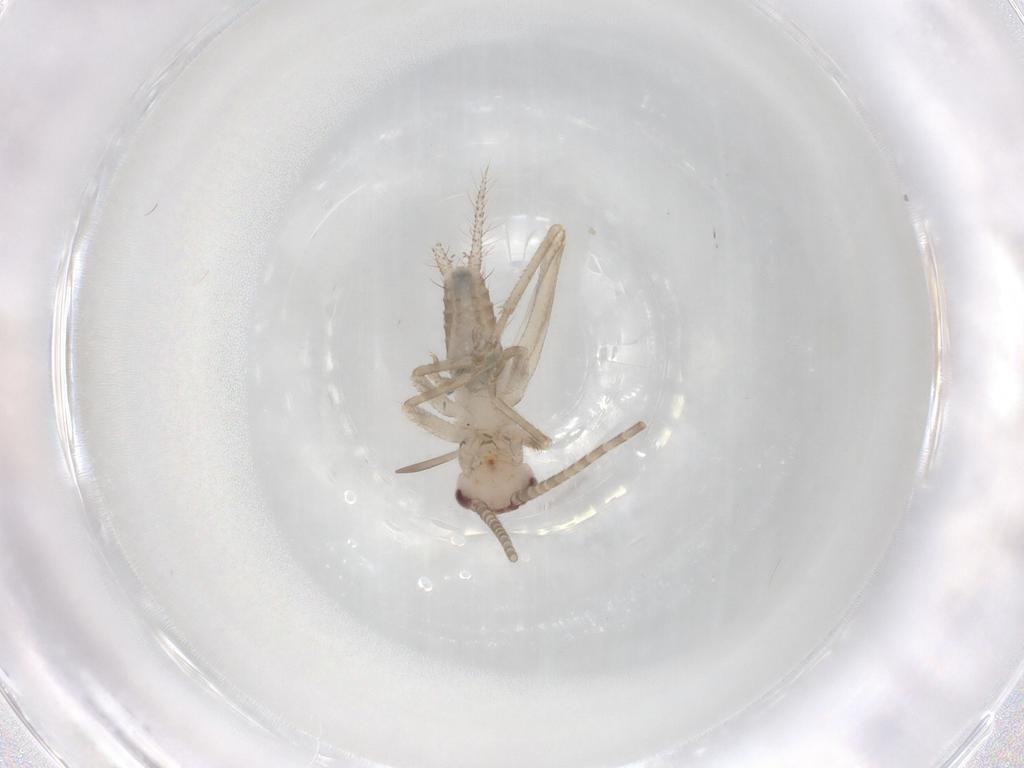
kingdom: Animalia
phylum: Arthropoda
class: Insecta
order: Orthoptera
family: Gryllidae
